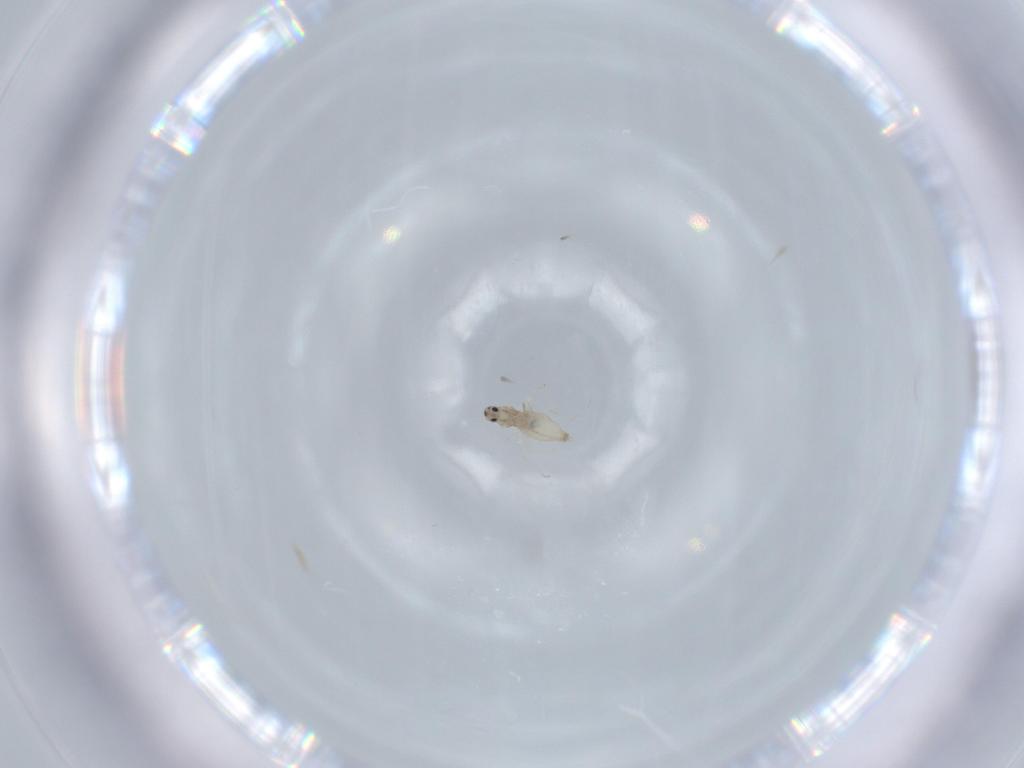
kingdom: Animalia
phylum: Arthropoda
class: Insecta
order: Diptera
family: Cecidomyiidae
